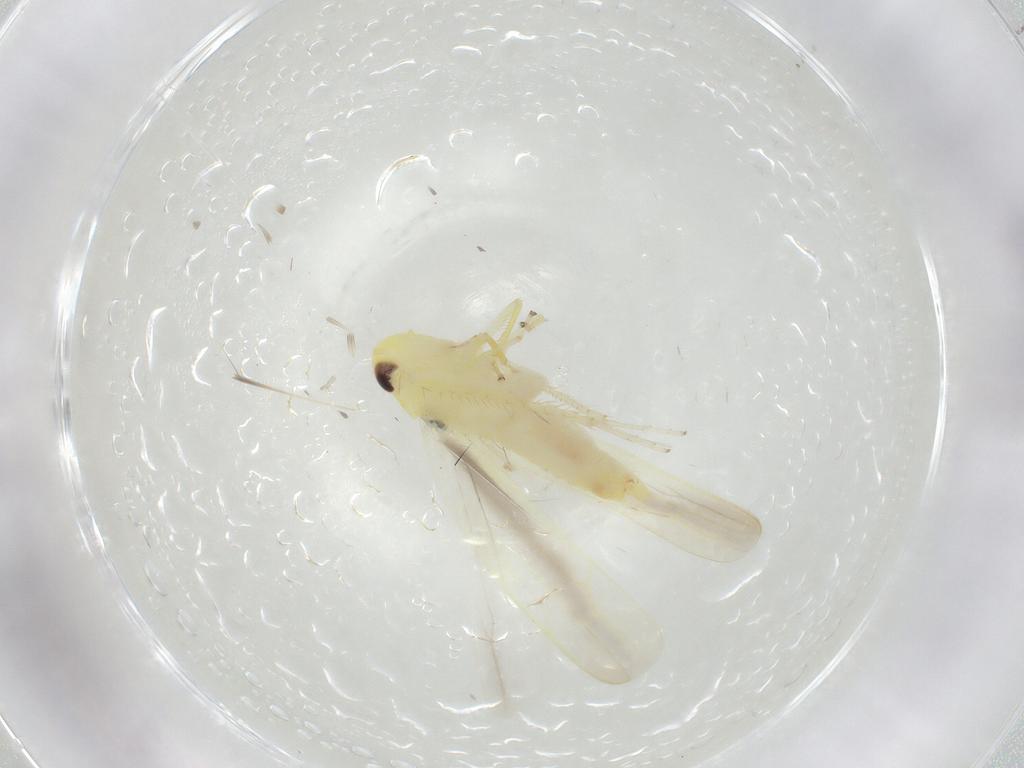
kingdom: Animalia
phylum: Arthropoda
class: Insecta
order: Hemiptera
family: Cicadellidae
